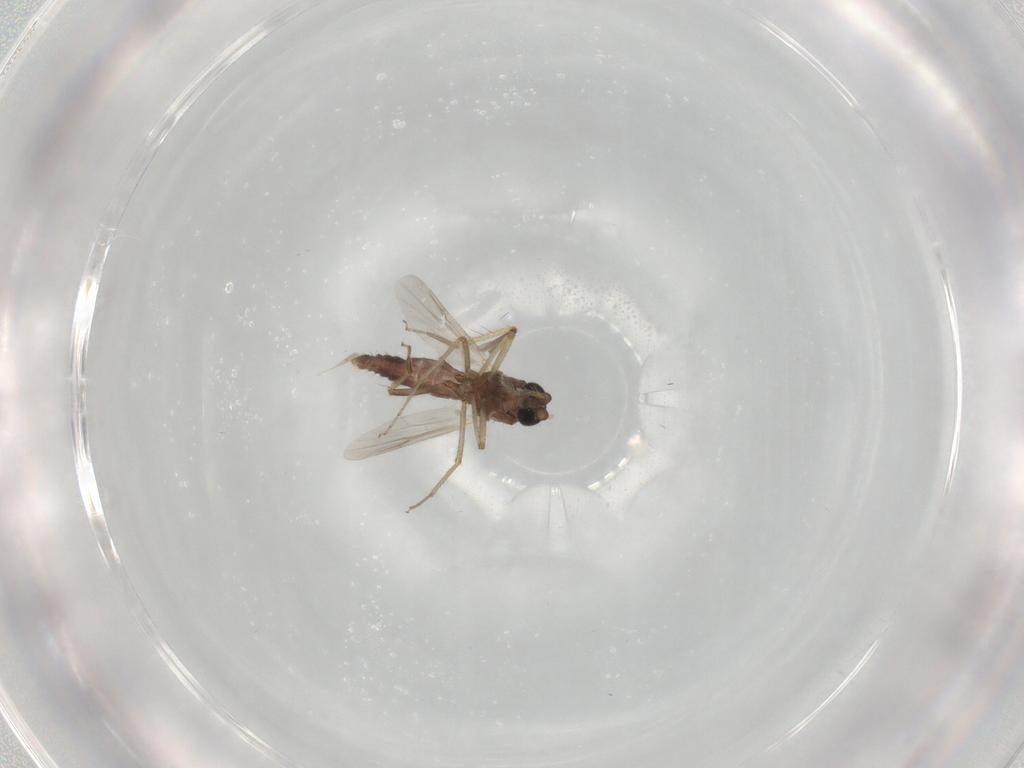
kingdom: Animalia
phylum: Arthropoda
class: Insecta
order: Diptera
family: Ceratopogonidae
